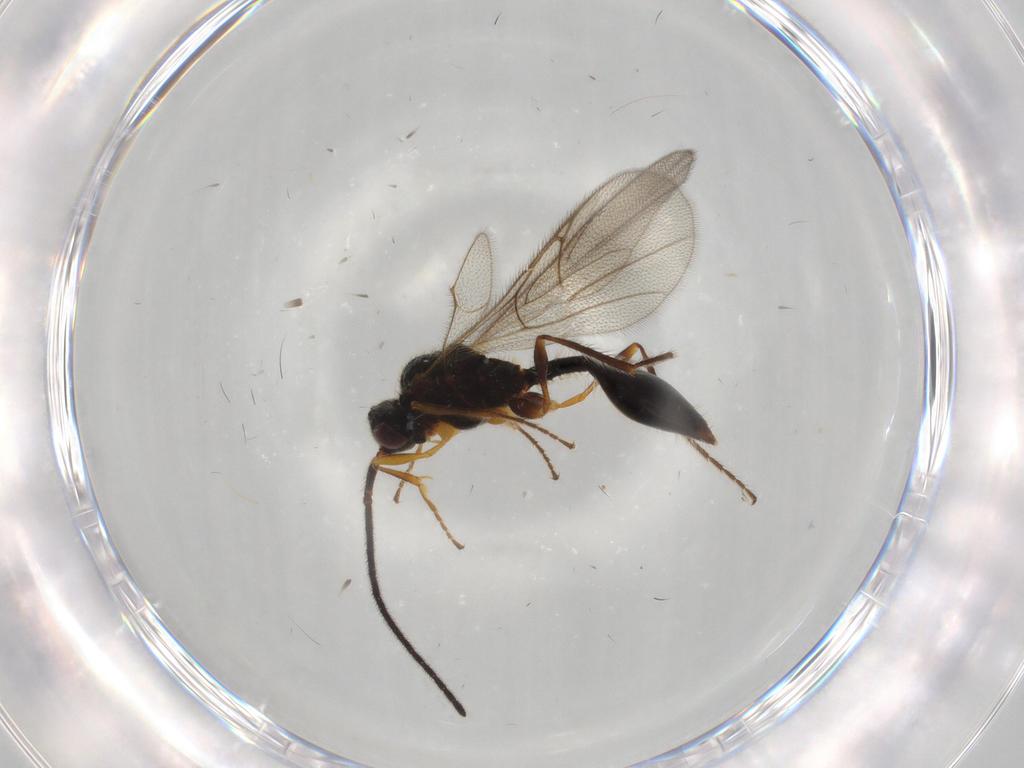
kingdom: Animalia
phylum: Arthropoda
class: Insecta
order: Hymenoptera
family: Diapriidae
